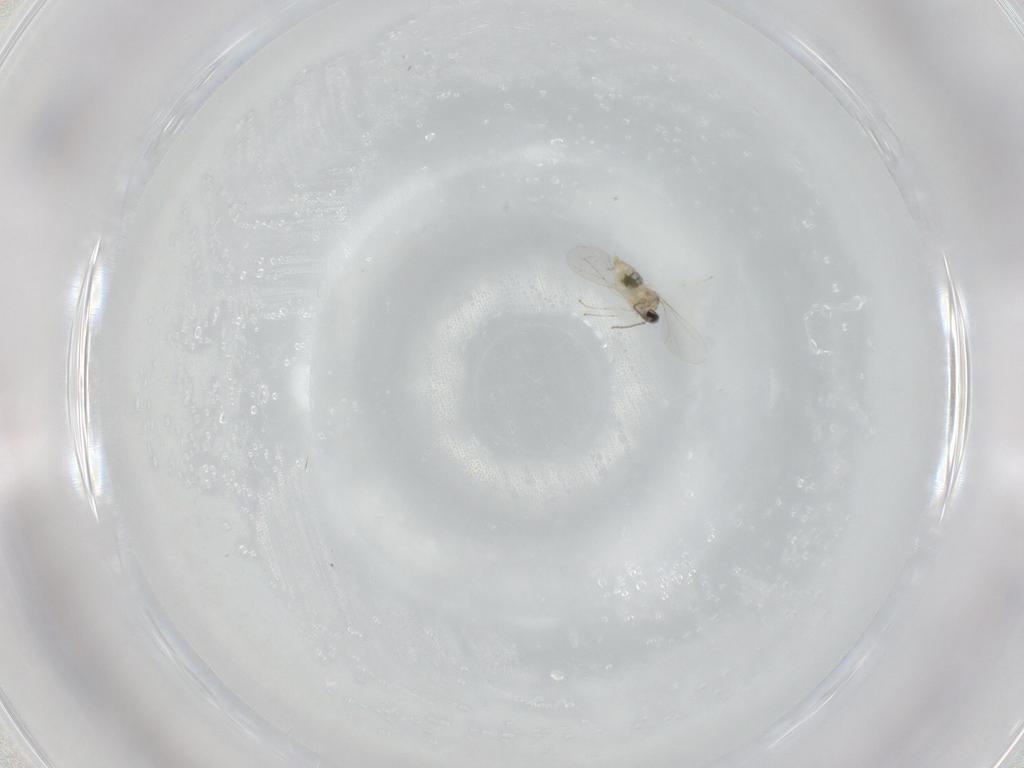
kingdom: Animalia
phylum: Arthropoda
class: Insecta
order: Diptera
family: Cecidomyiidae
